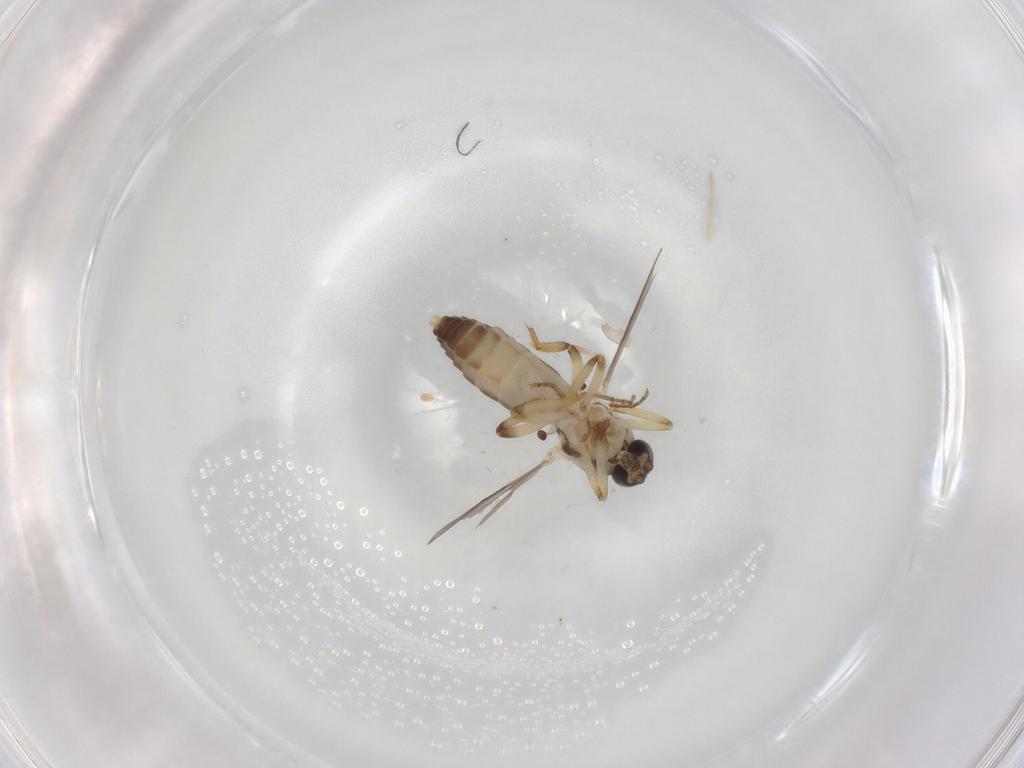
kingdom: Animalia
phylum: Arthropoda
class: Insecta
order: Diptera
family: Ceratopogonidae
